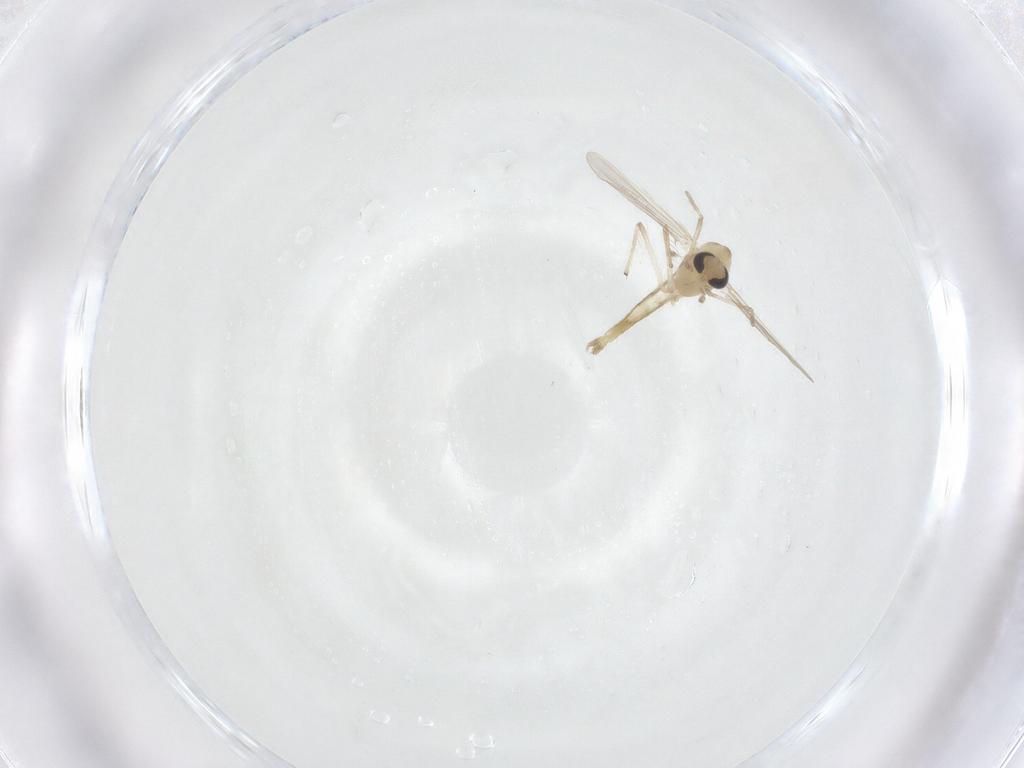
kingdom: Animalia
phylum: Arthropoda
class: Insecta
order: Diptera
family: Chironomidae
